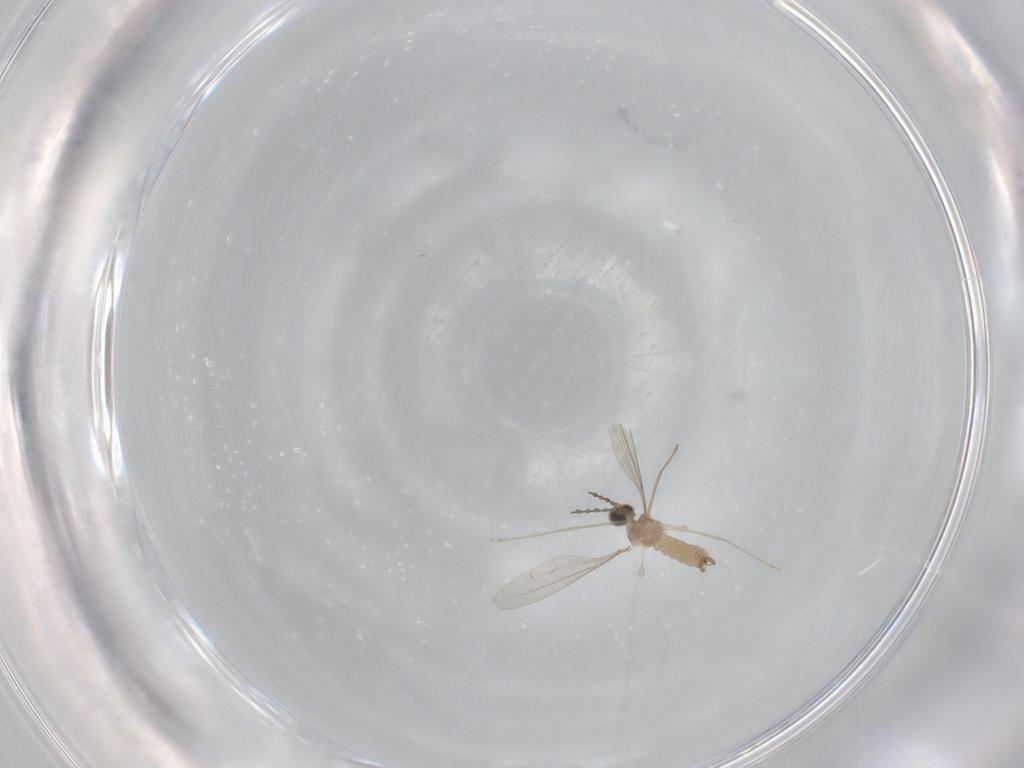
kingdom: Animalia
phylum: Arthropoda
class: Insecta
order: Diptera
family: Cecidomyiidae
